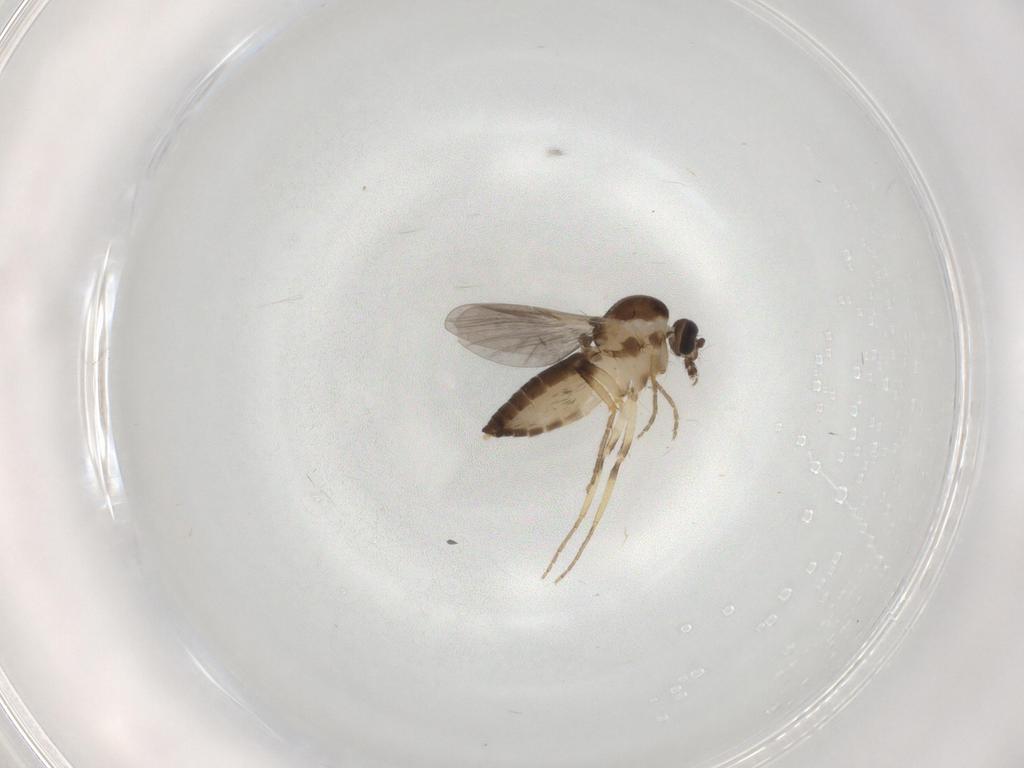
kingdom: Animalia
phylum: Arthropoda
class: Insecta
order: Diptera
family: Ceratopogonidae
